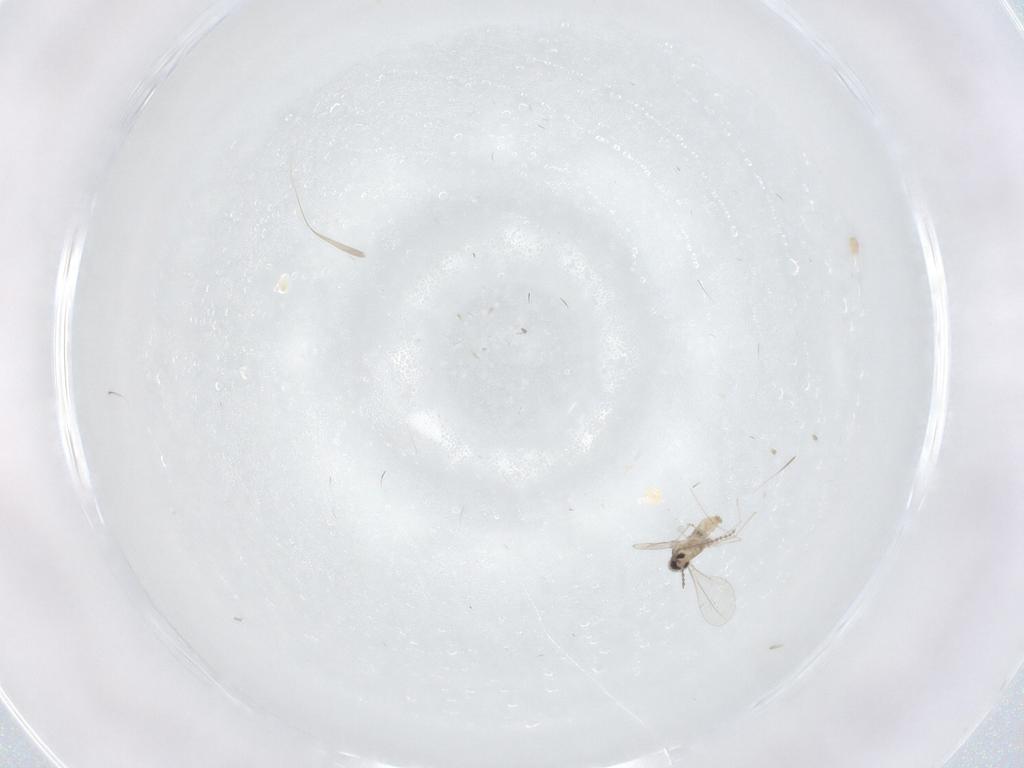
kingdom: Animalia
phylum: Arthropoda
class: Insecta
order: Diptera
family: Cecidomyiidae
